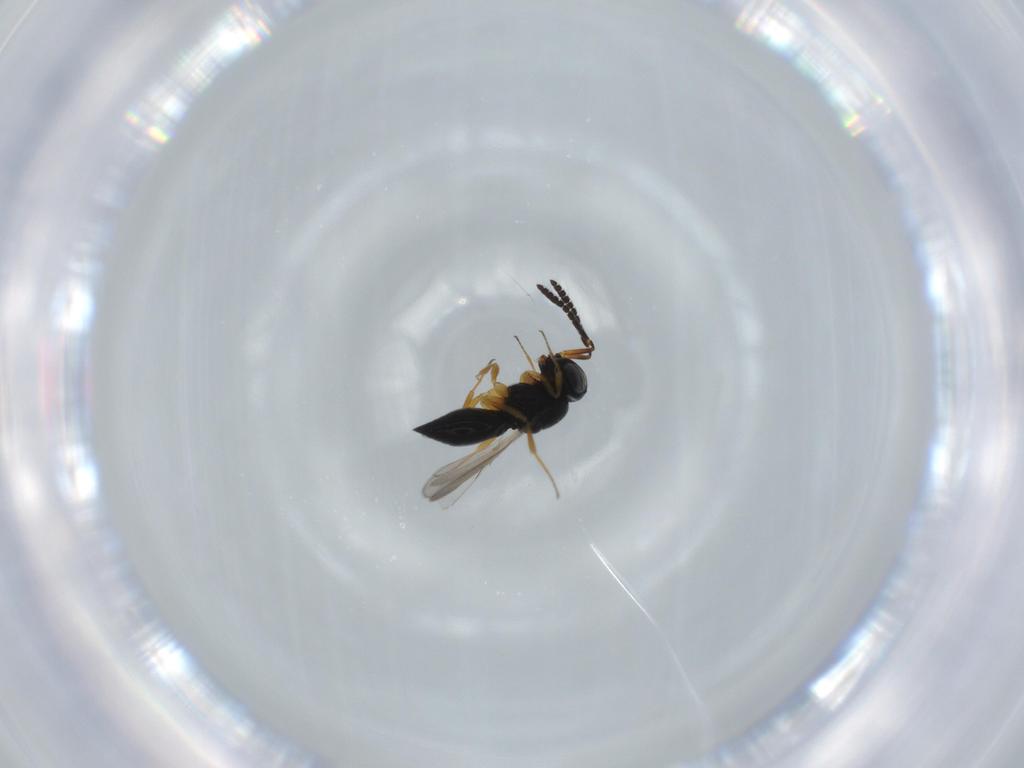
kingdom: Animalia
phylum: Arthropoda
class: Insecta
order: Hymenoptera
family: Scelionidae
